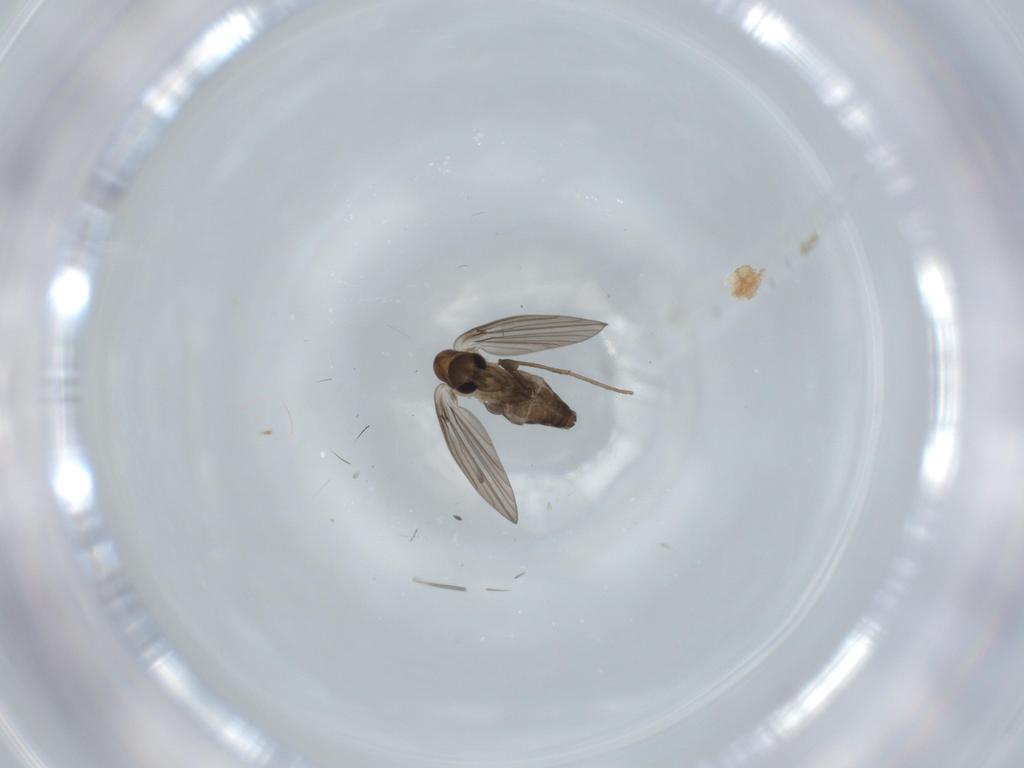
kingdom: Animalia
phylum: Arthropoda
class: Insecta
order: Diptera
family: Psychodidae
